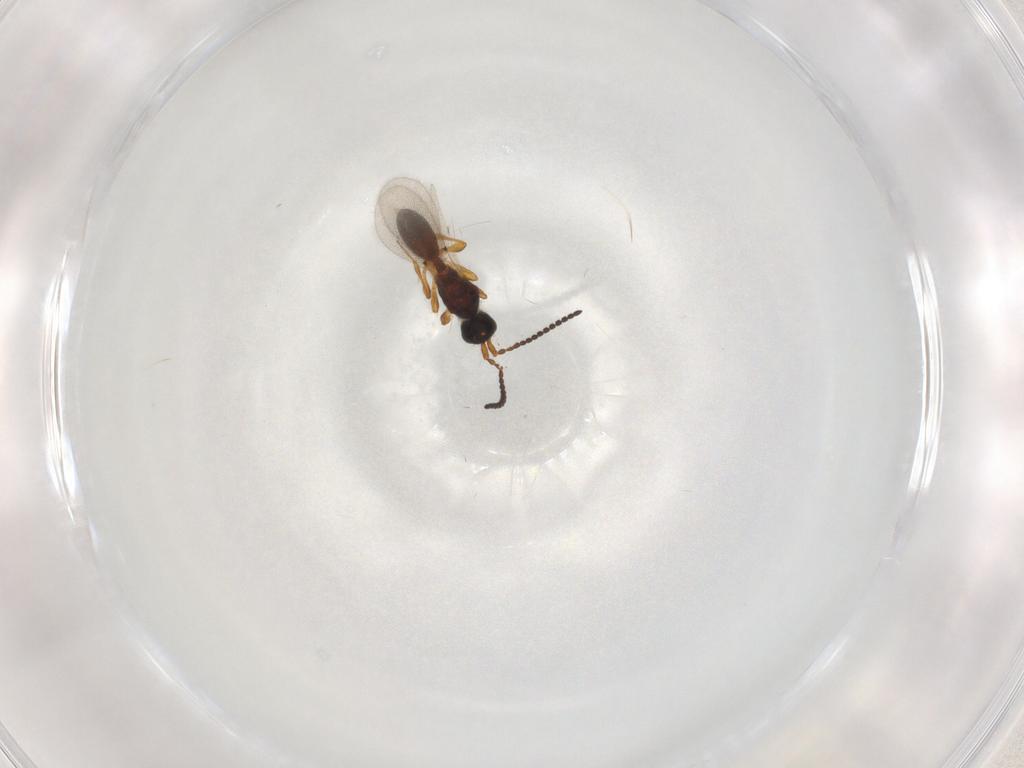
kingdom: Animalia
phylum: Arthropoda
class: Insecta
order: Hymenoptera
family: Diapriidae
